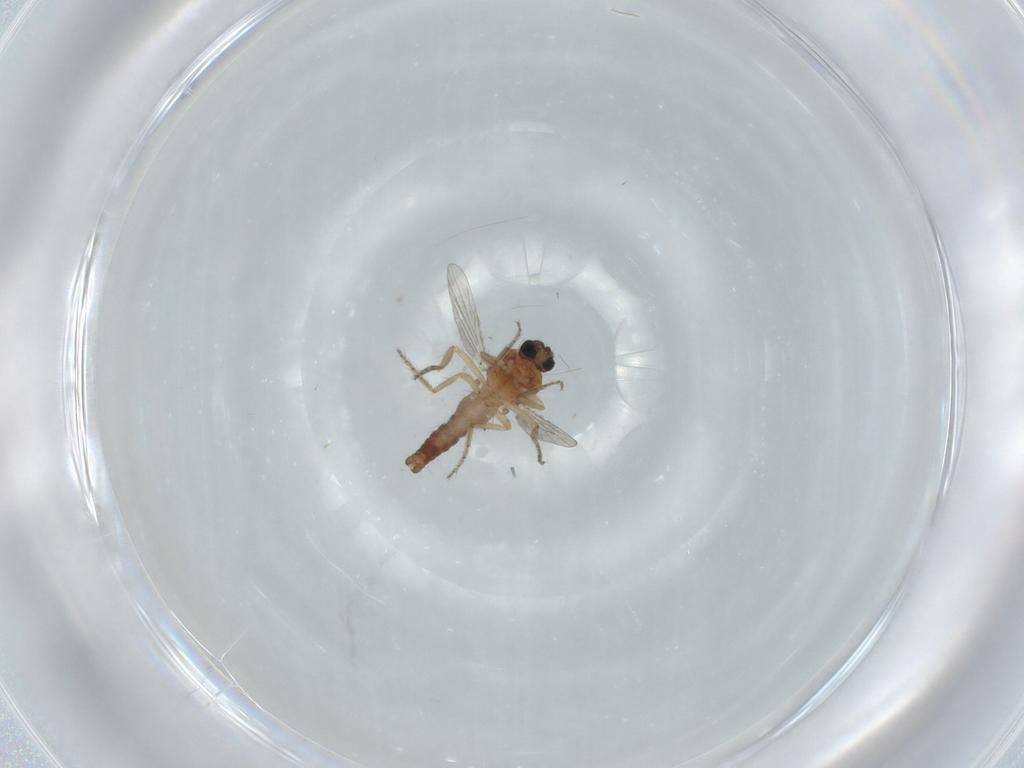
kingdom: Animalia
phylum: Arthropoda
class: Insecta
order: Diptera
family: Ceratopogonidae
